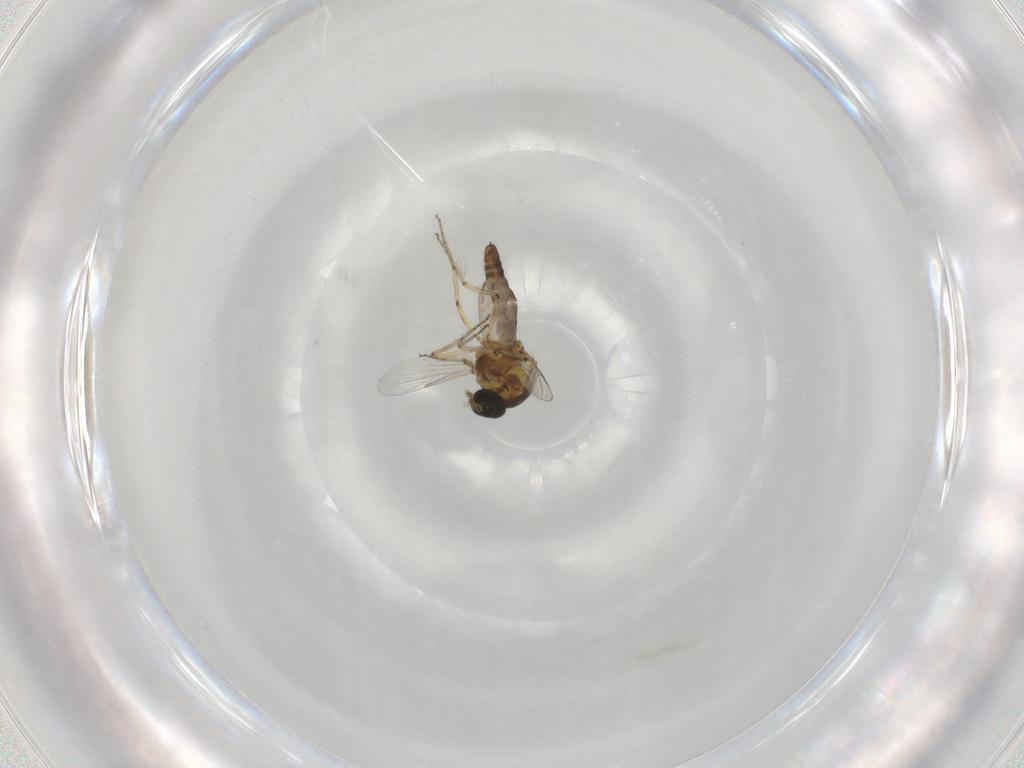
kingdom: Animalia
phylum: Arthropoda
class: Insecta
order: Diptera
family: Ceratopogonidae
